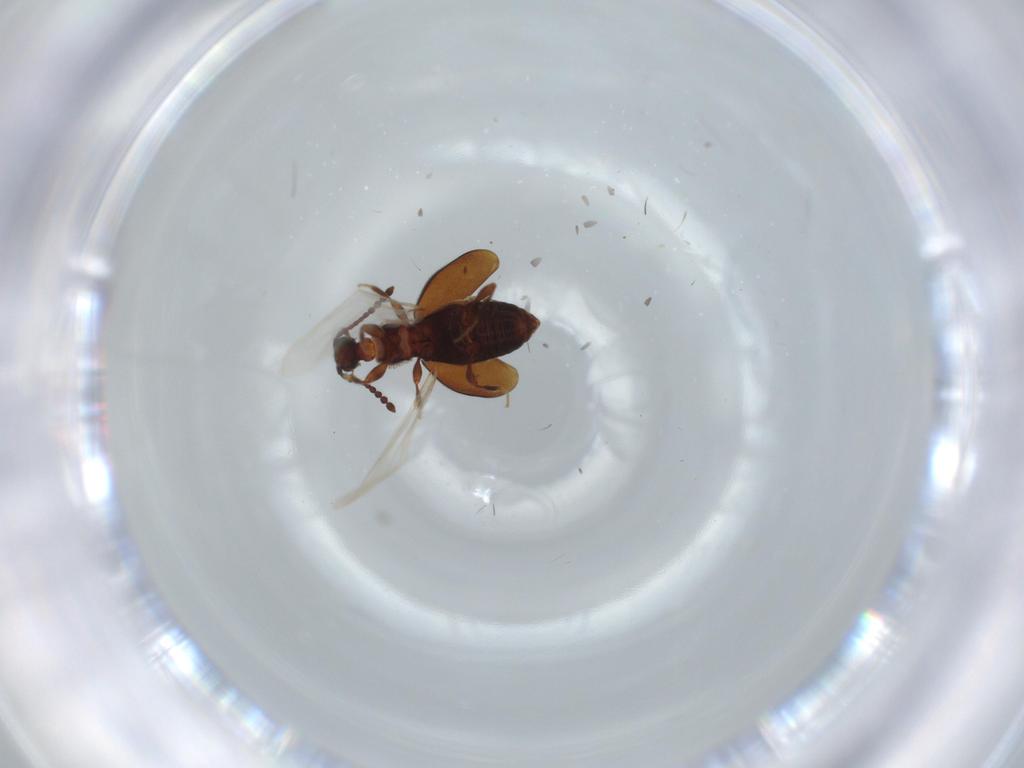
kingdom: Animalia
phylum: Arthropoda
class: Insecta
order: Coleoptera
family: Staphylinidae
